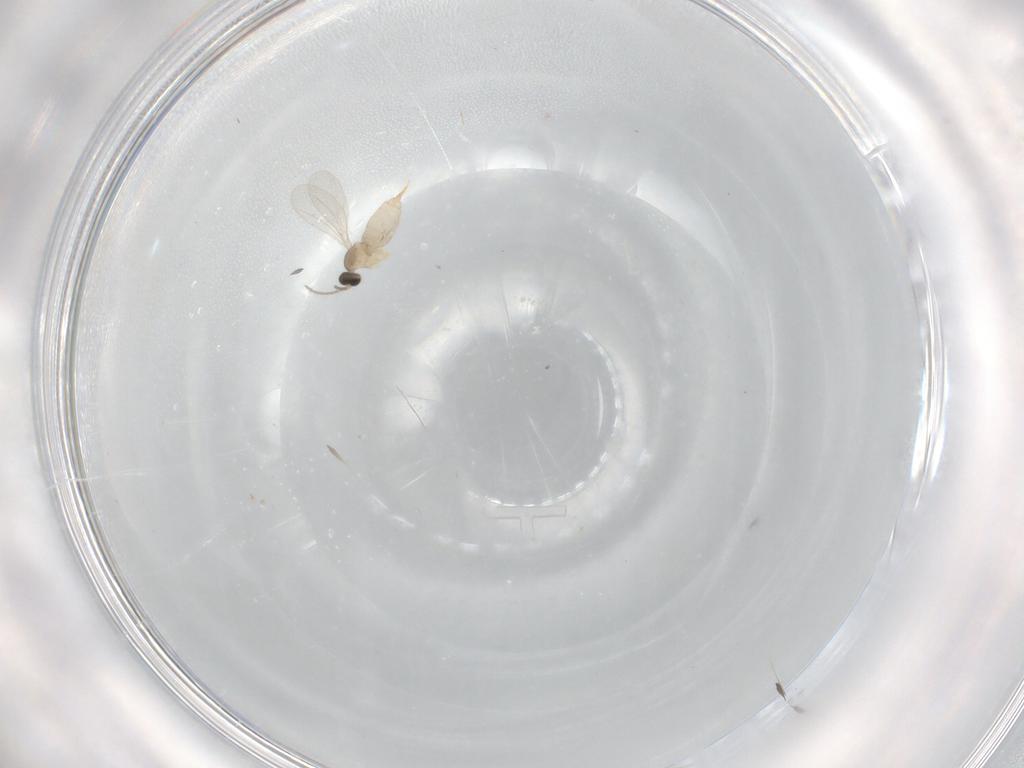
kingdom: Animalia
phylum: Arthropoda
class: Insecta
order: Diptera
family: Cecidomyiidae
